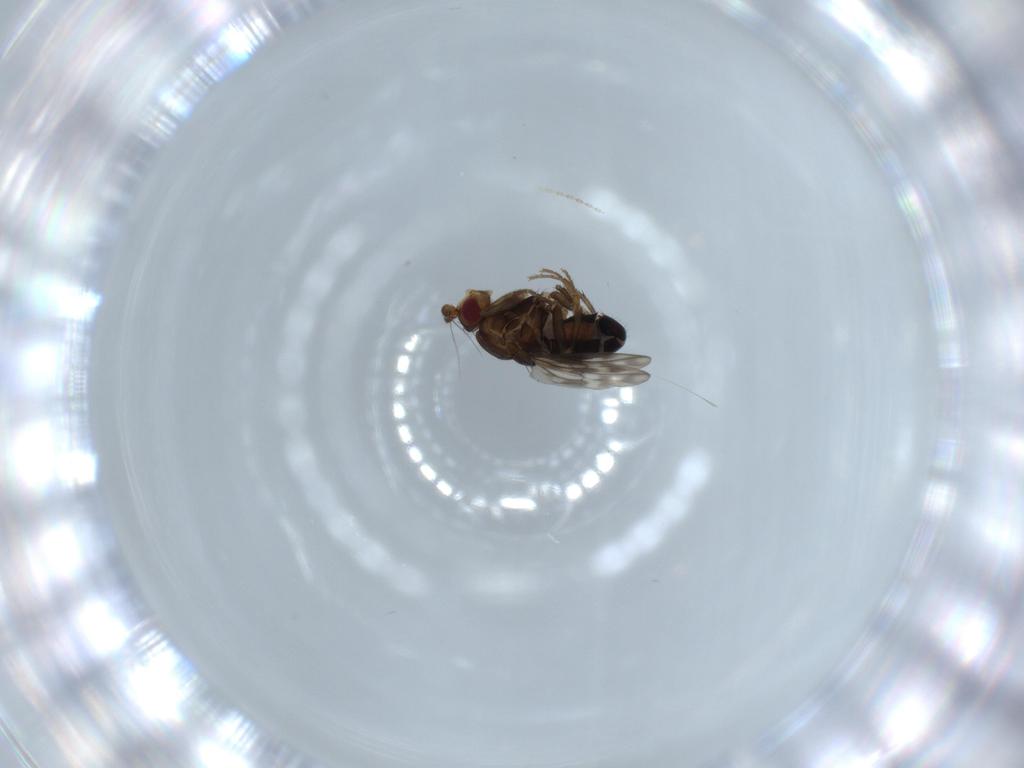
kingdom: Animalia
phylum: Arthropoda
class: Insecta
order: Diptera
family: Sphaeroceridae
